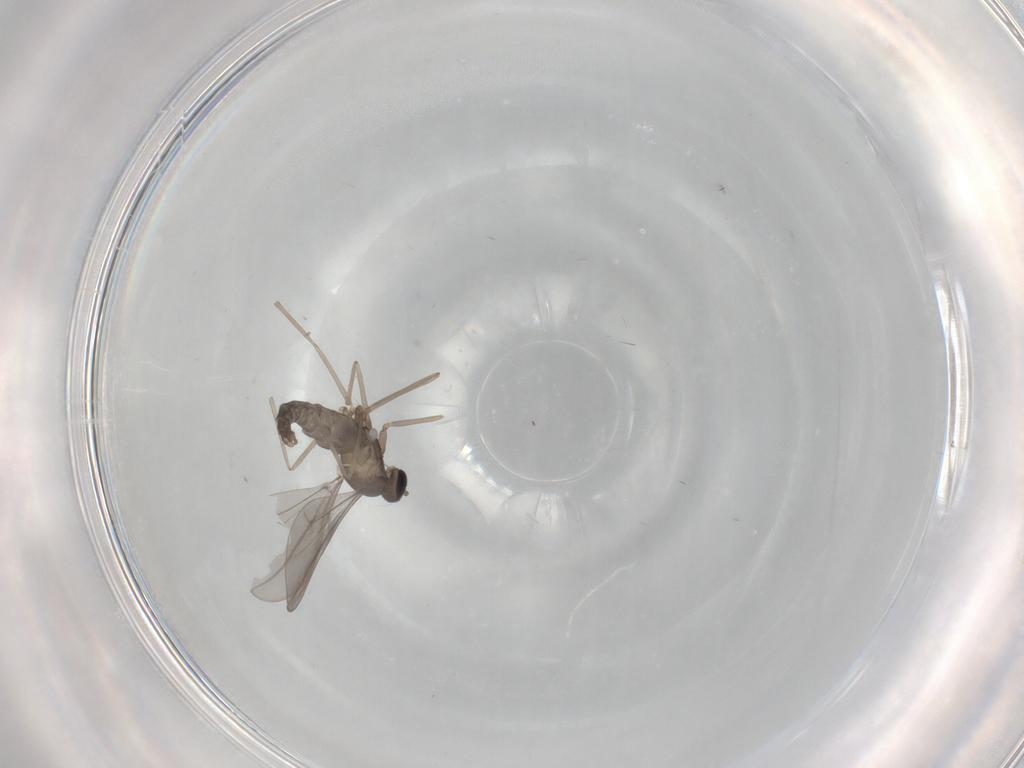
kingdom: Animalia
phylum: Arthropoda
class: Insecta
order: Diptera
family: Cecidomyiidae
